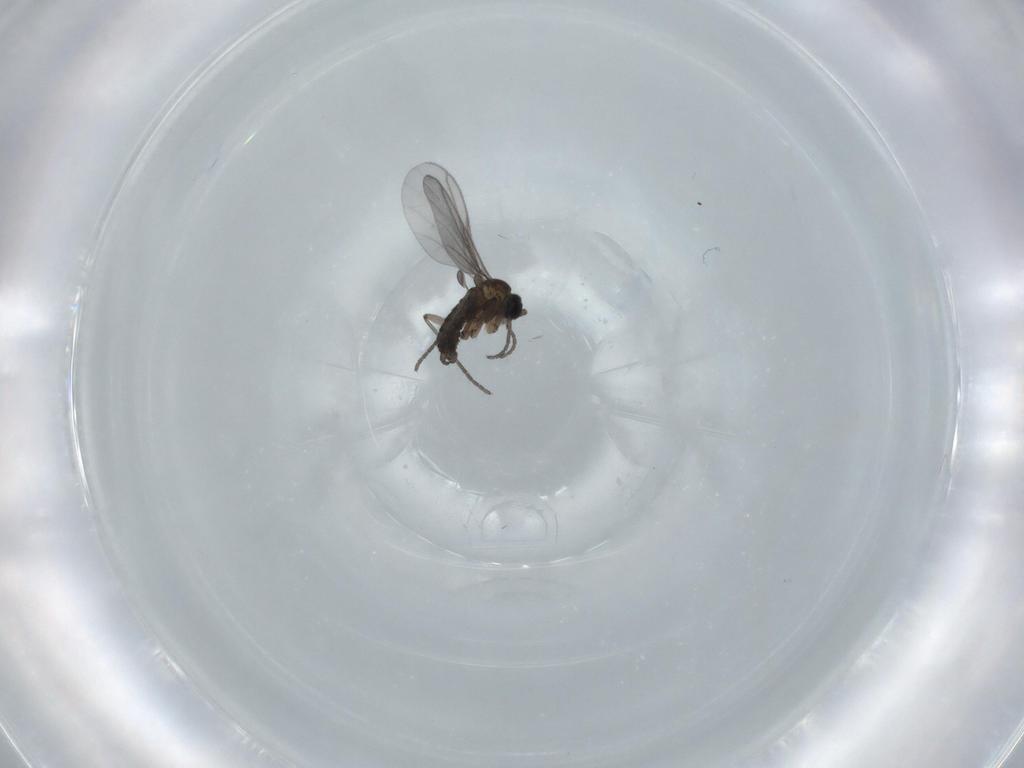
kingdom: Animalia
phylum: Arthropoda
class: Insecta
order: Diptera
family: Anthomyiidae
